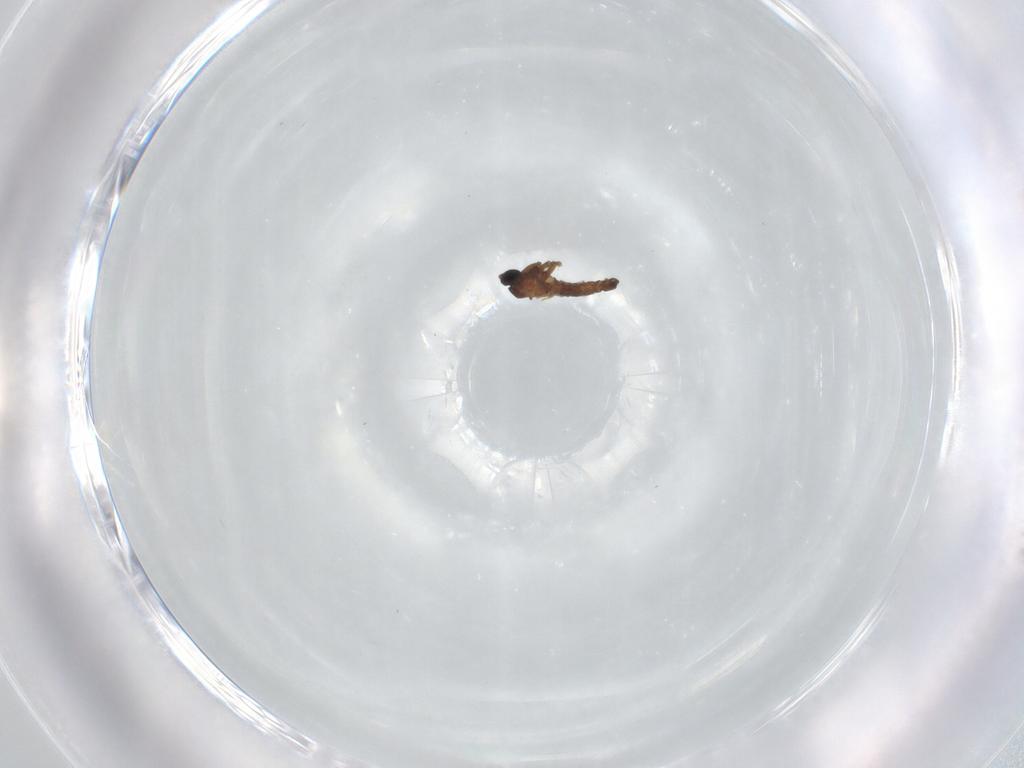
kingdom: Animalia
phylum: Arthropoda
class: Insecta
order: Diptera
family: Sciaridae
